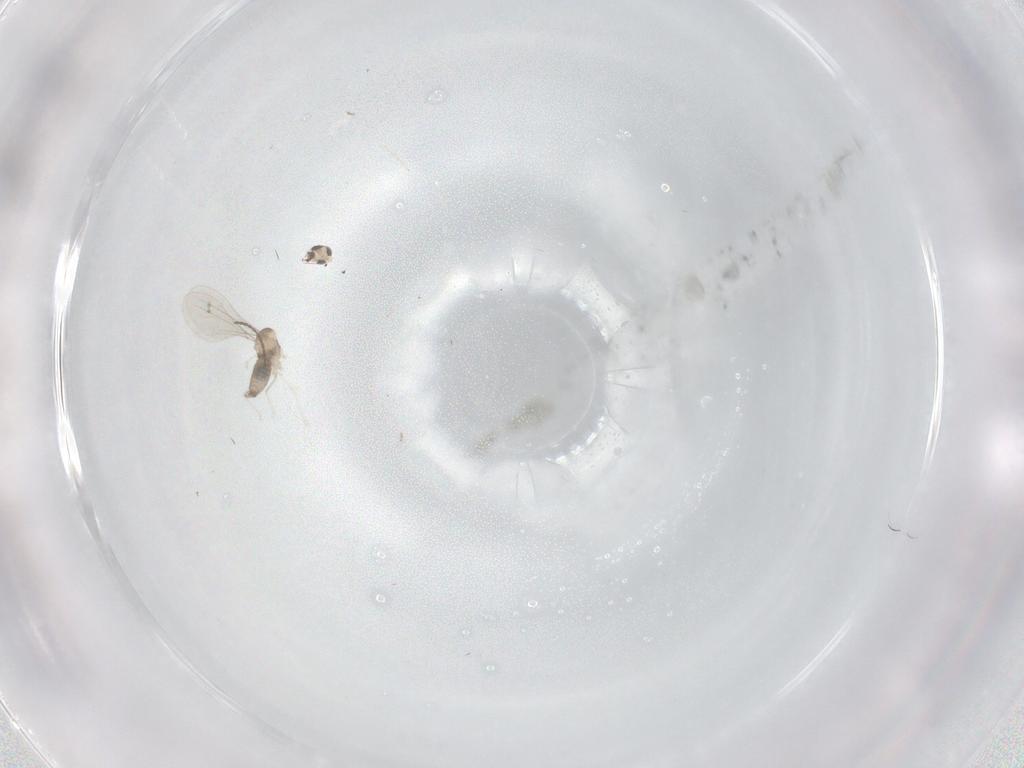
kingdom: Animalia
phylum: Arthropoda
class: Insecta
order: Diptera
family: Cecidomyiidae
